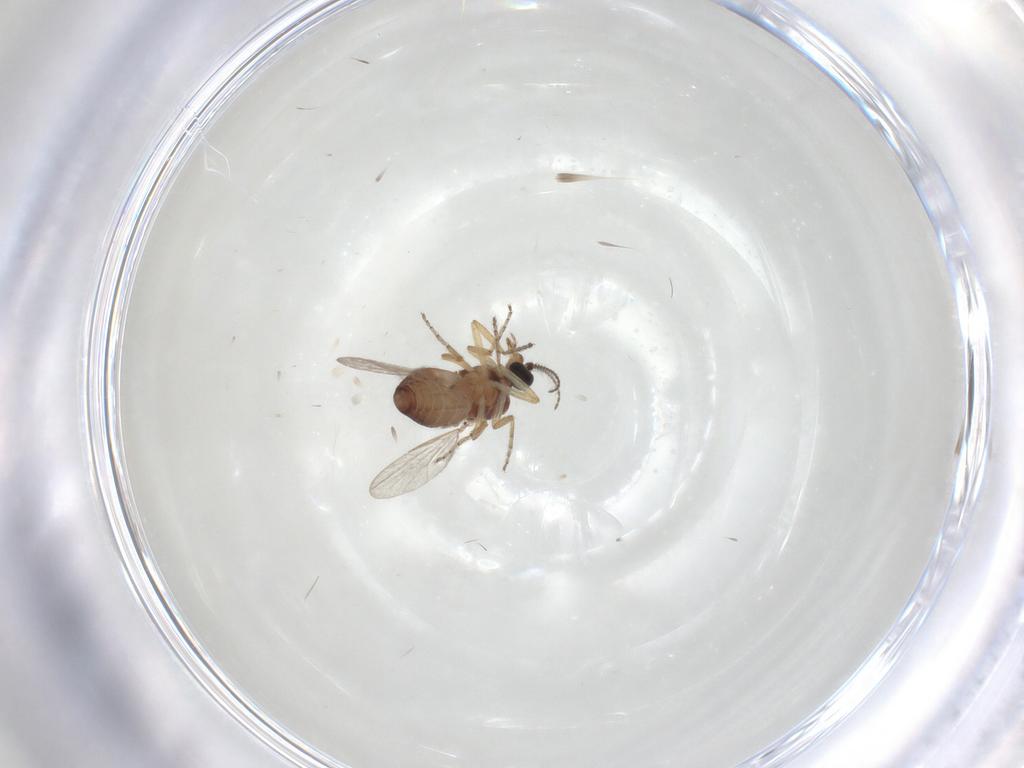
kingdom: Animalia
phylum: Arthropoda
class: Insecta
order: Diptera
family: Ceratopogonidae
